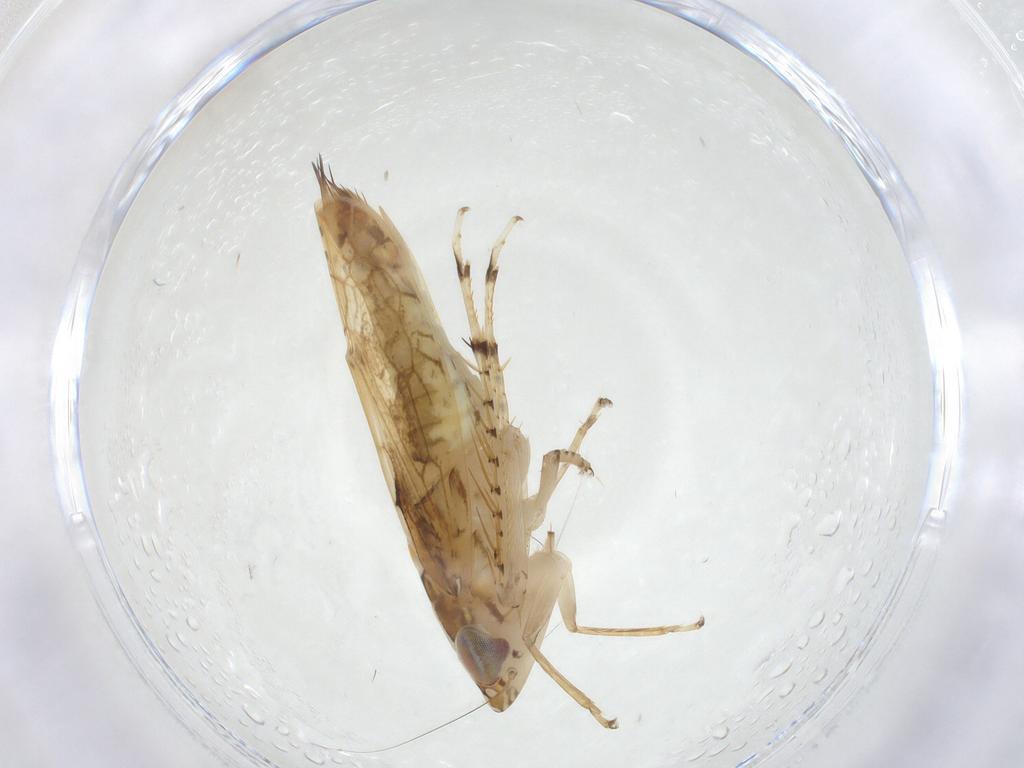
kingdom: Animalia
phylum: Arthropoda
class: Insecta
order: Hemiptera
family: Cicadellidae
